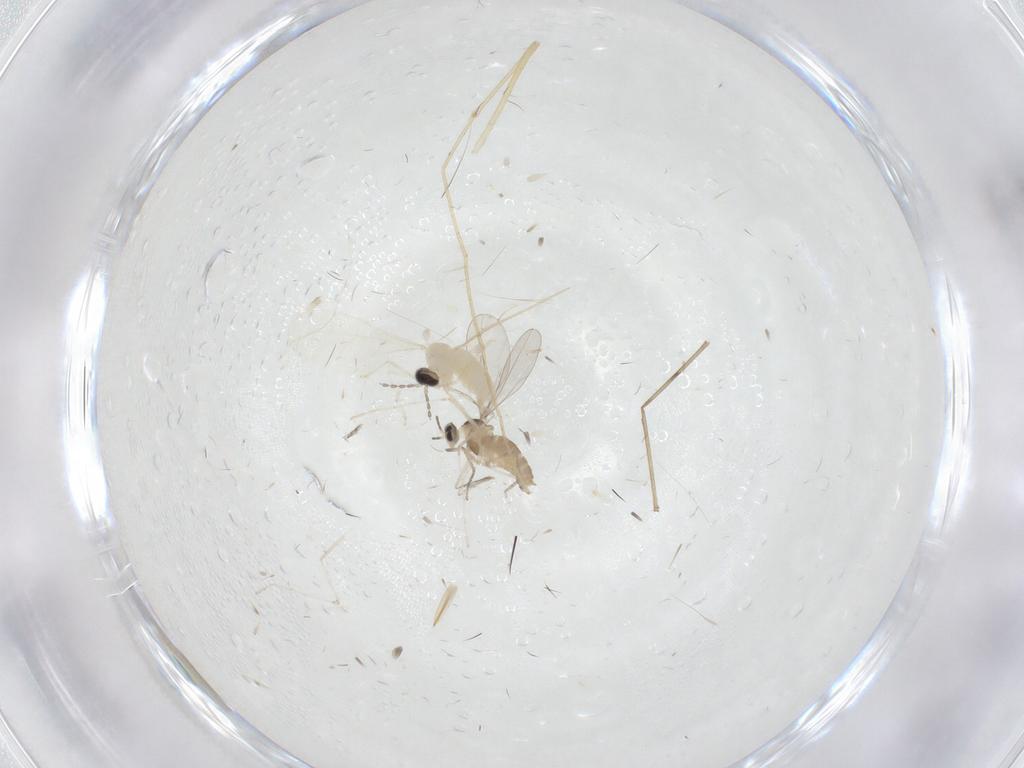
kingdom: Animalia
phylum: Arthropoda
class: Insecta
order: Diptera
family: Cecidomyiidae
